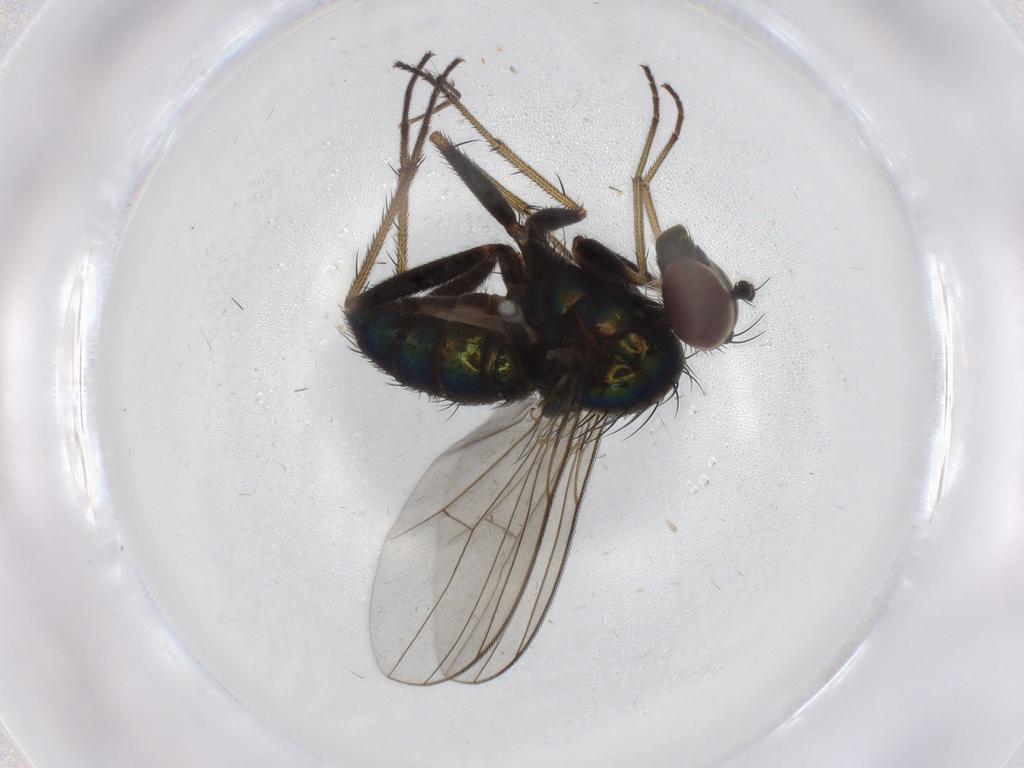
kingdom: Animalia
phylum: Arthropoda
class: Insecta
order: Diptera
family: Dolichopodidae
